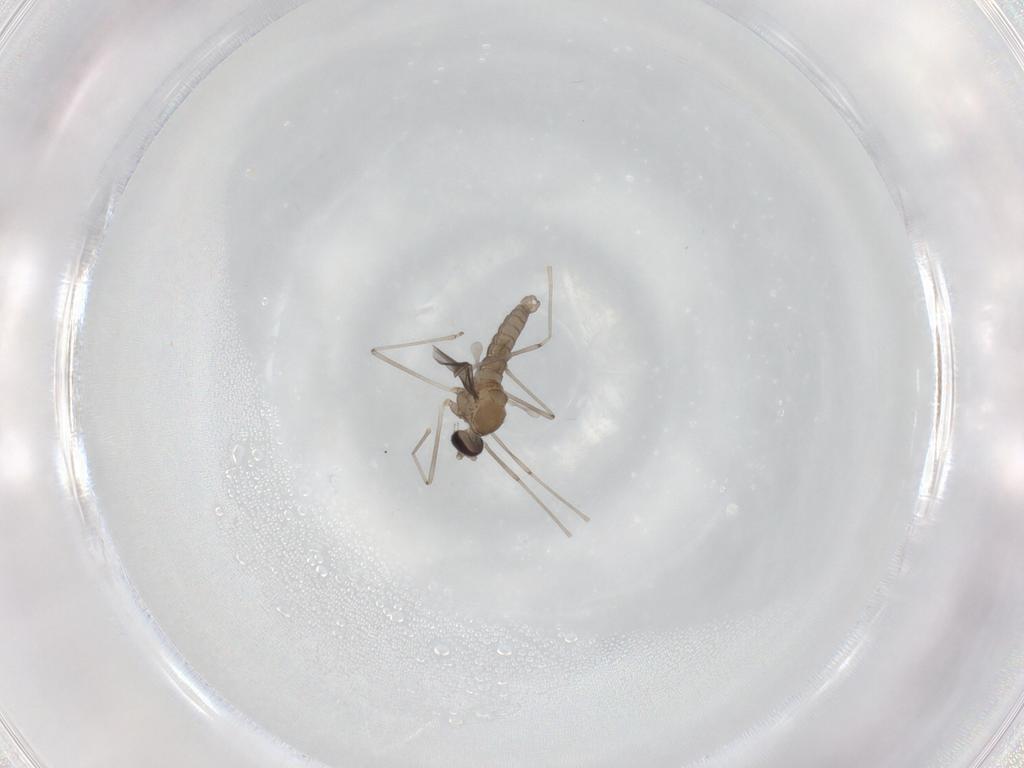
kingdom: Animalia
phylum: Arthropoda
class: Insecta
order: Diptera
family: Cecidomyiidae
